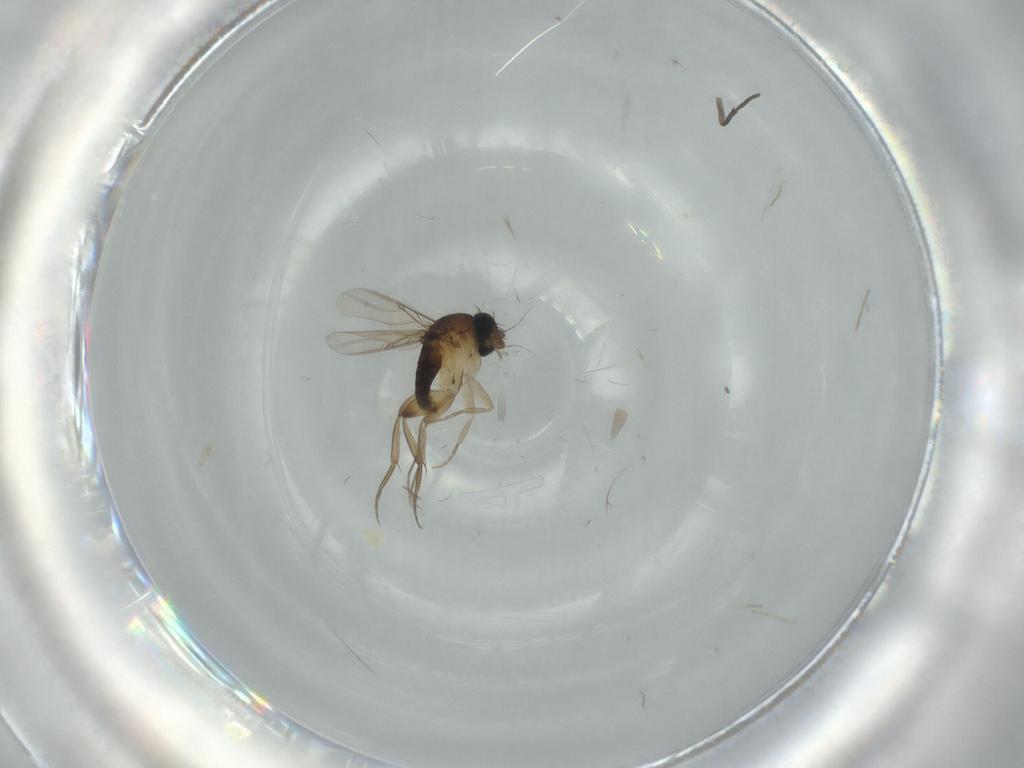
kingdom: Animalia
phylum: Arthropoda
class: Insecta
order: Diptera
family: Phoridae
